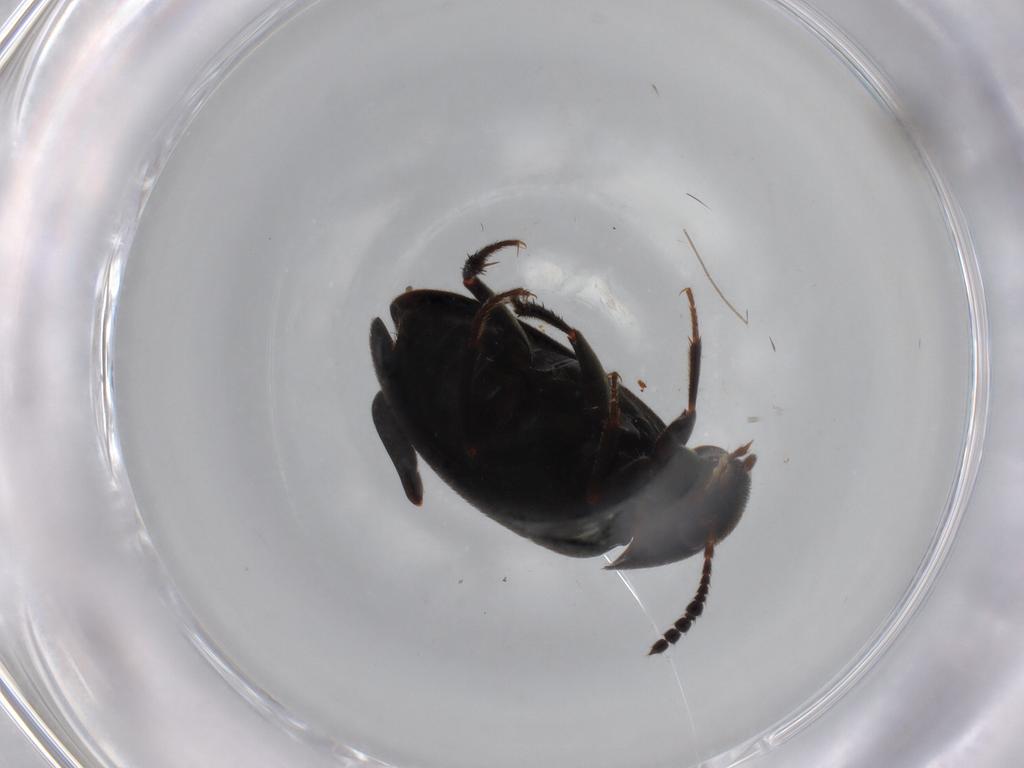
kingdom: Animalia
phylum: Arthropoda
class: Insecta
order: Coleoptera
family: Leiodidae
